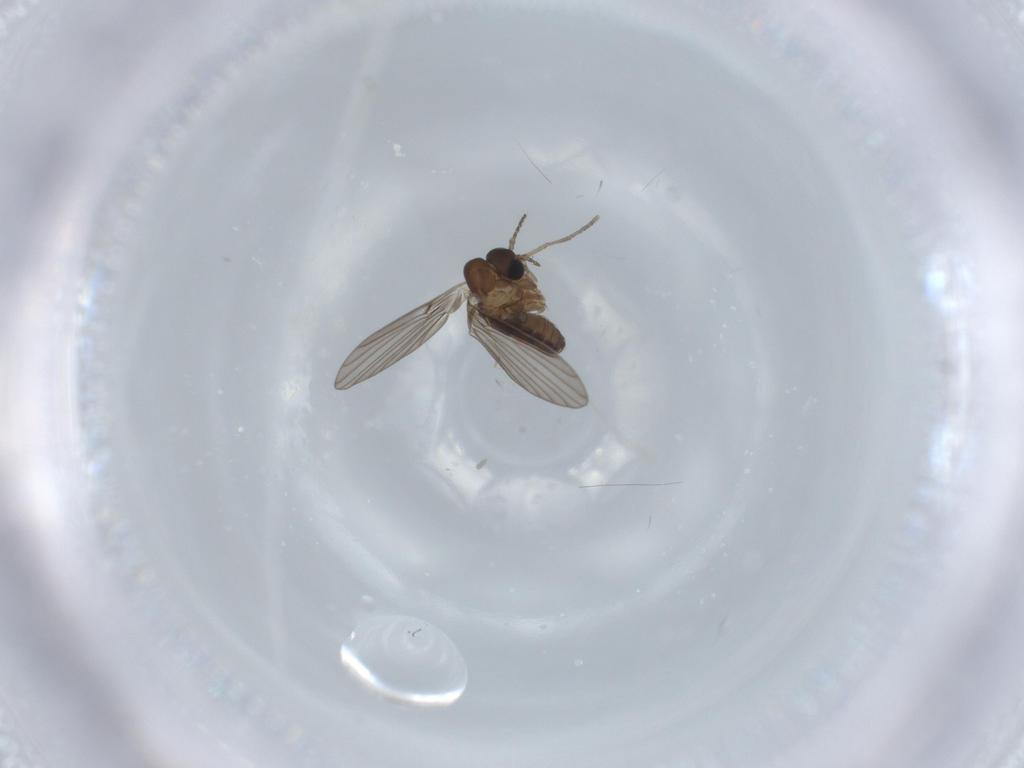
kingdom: Animalia
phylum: Arthropoda
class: Insecta
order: Diptera
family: Psychodidae
